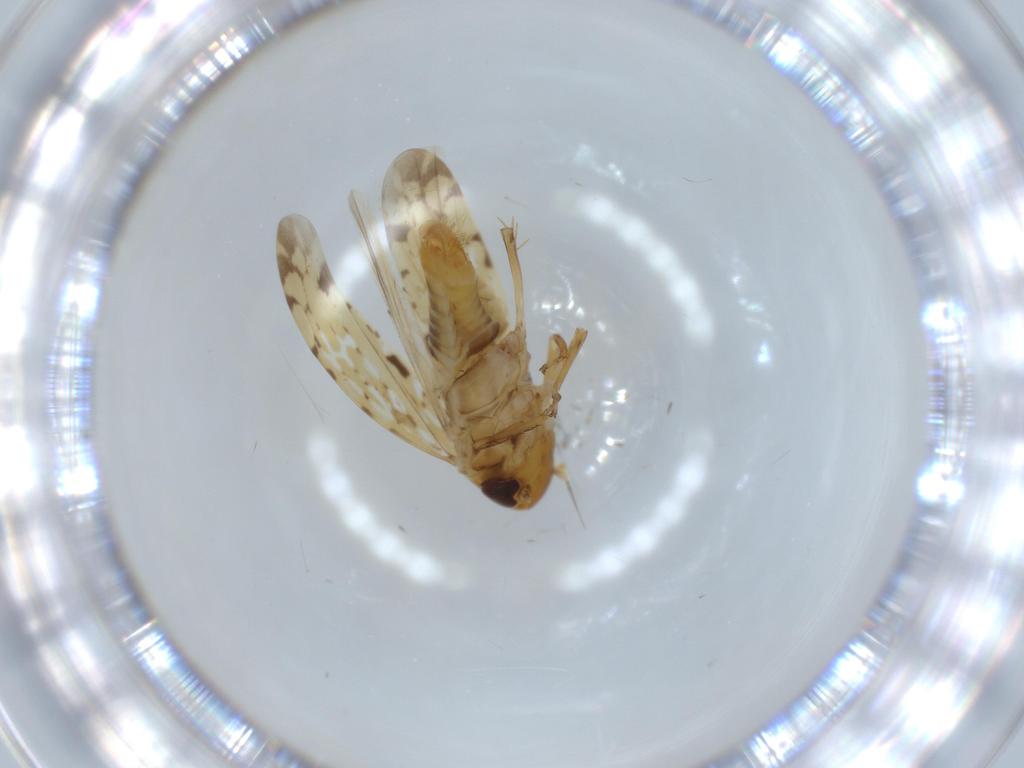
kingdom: Animalia
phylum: Arthropoda
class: Insecta
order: Hemiptera
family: Cicadellidae
